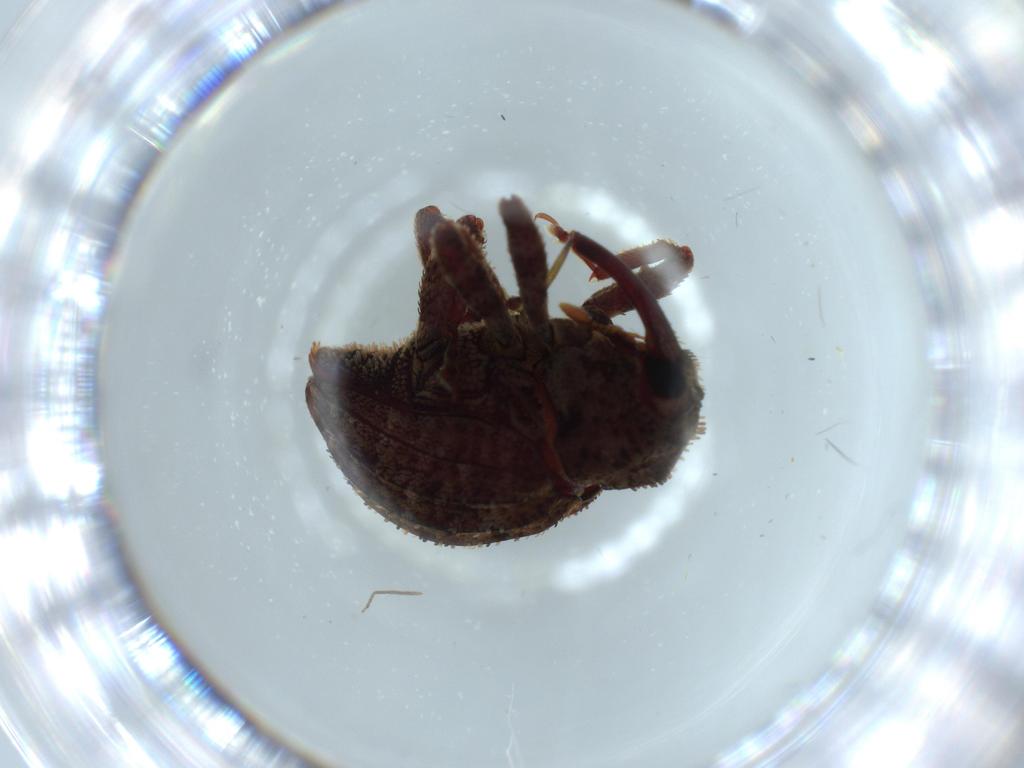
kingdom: Animalia
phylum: Arthropoda
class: Insecta
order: Coleoptera
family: Curculionidae
